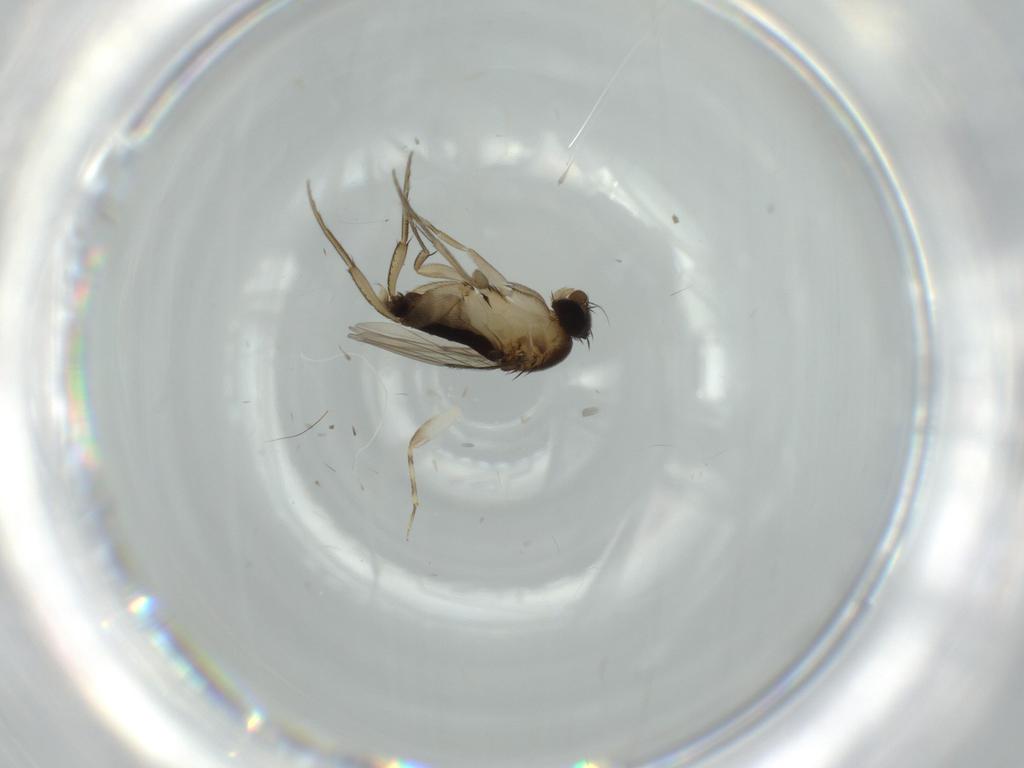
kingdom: Animalia
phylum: Arthropoda
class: Insecta
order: Diptera
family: Phoridae
